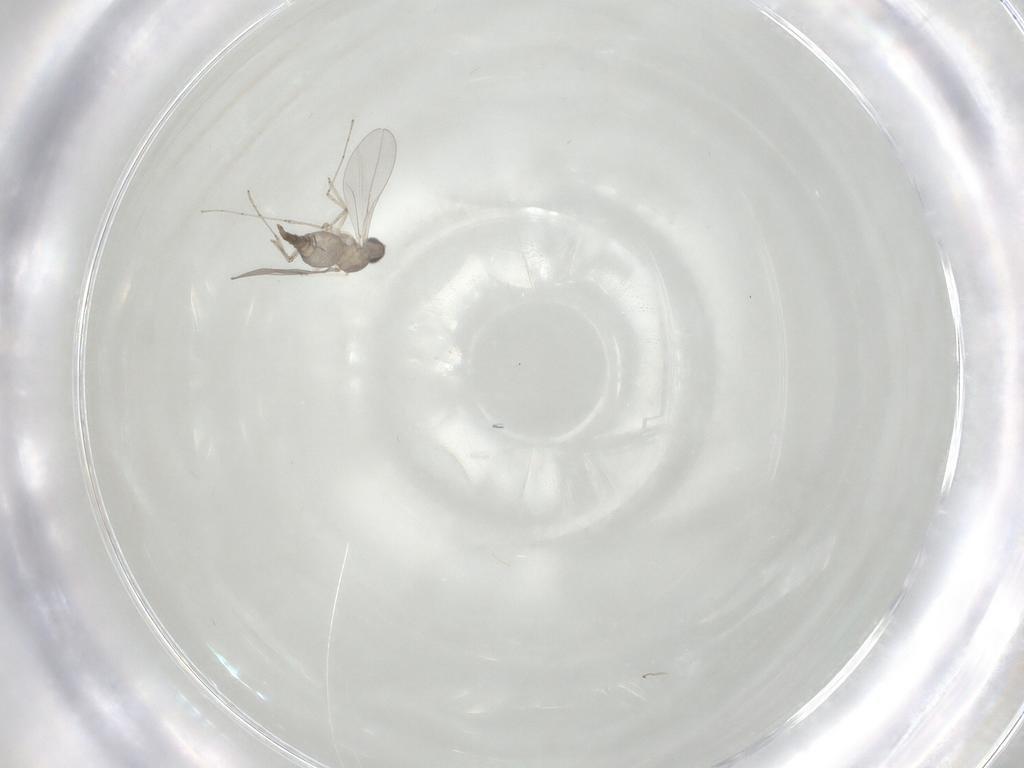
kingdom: Animalia
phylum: Arthropoda
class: Insecta
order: Diptera
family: Cecidomyiidae
